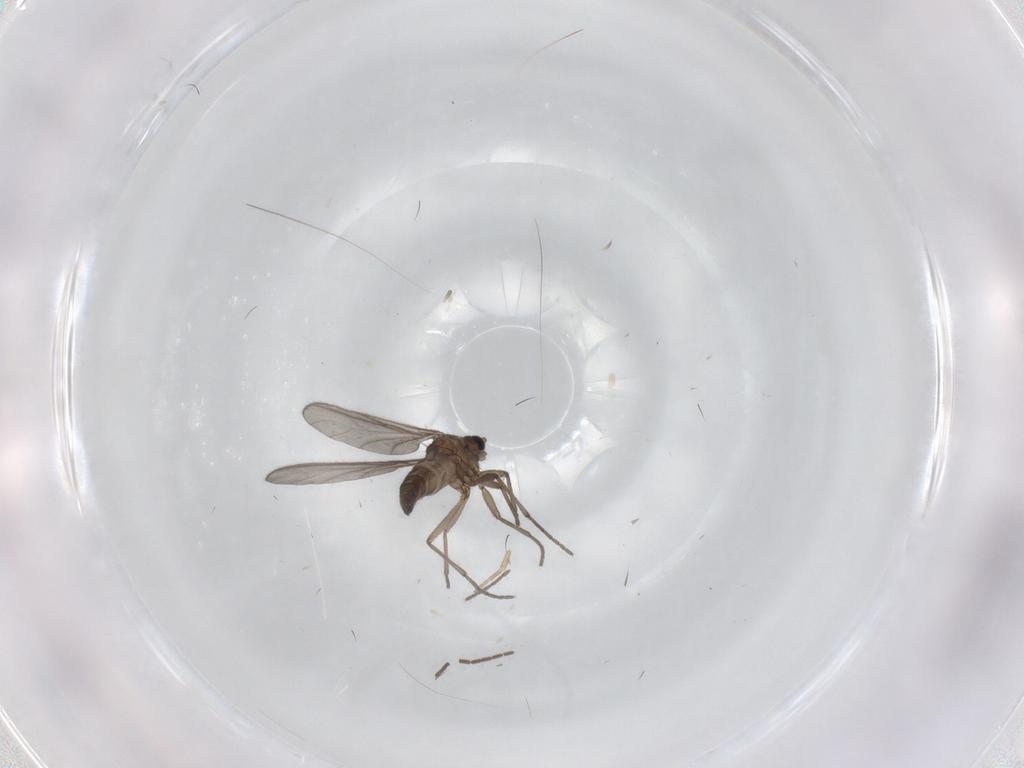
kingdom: Animalia
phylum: Arthropoda
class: Insecta
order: Diptera
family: Sciaridae
